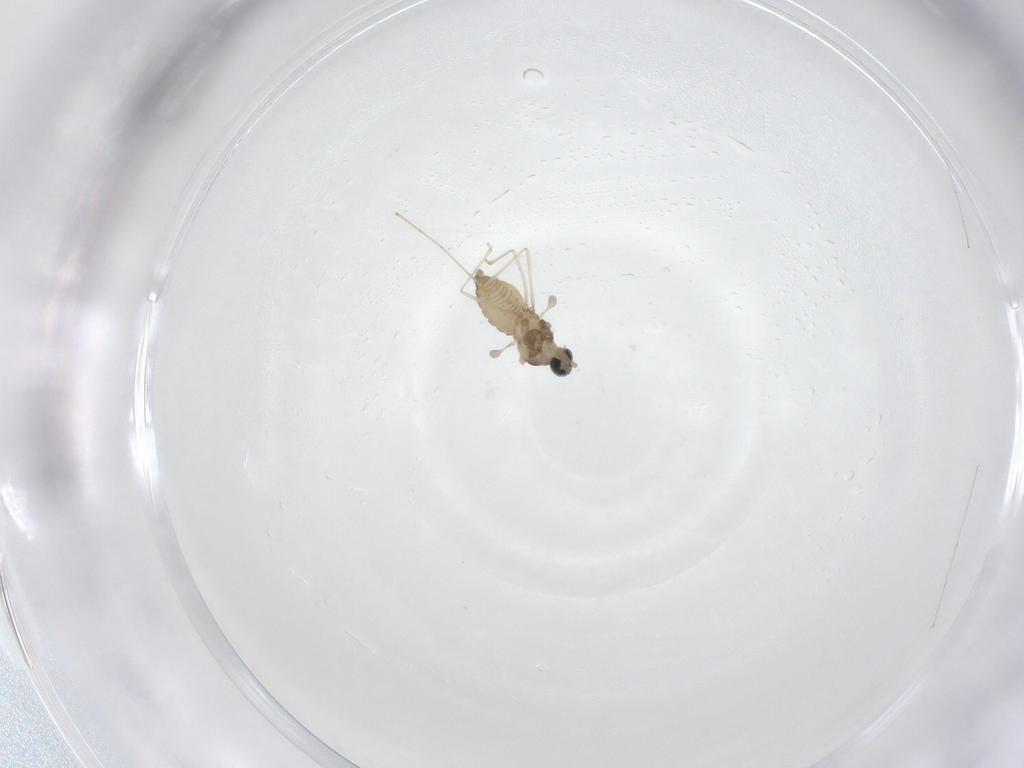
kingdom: Animalia
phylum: Arthropoda
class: Insecta
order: Diptera
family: Cecidomyiidae
